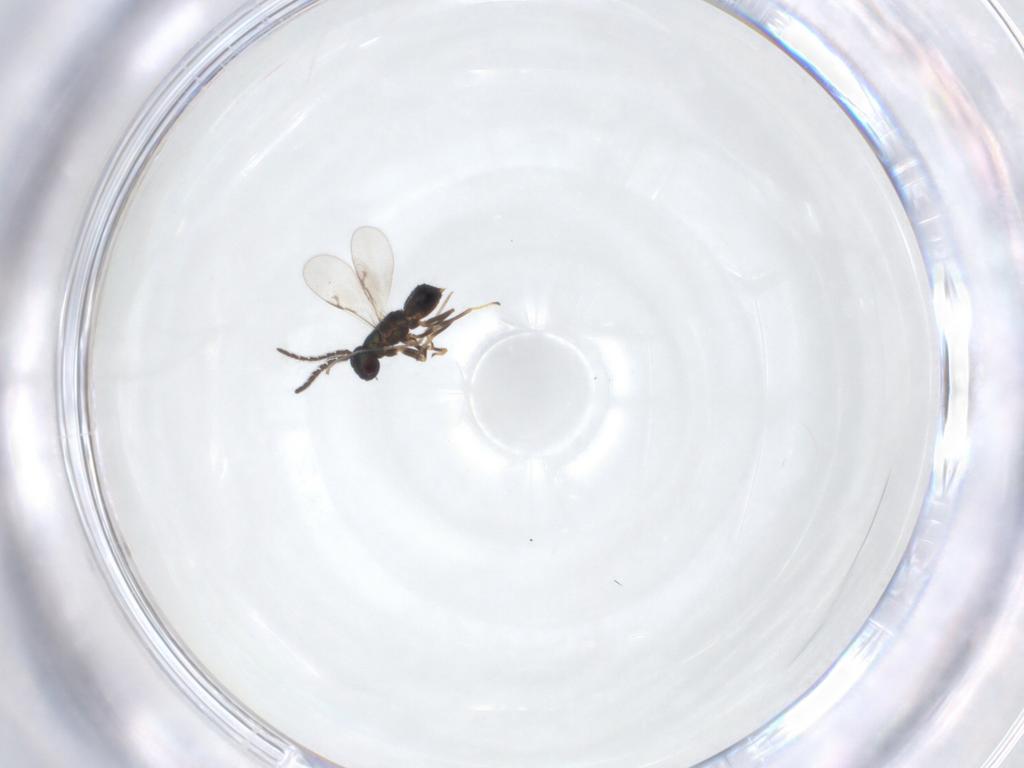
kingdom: Animalia
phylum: Arthropoda
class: Insecta
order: Hymenoptera
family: Encyrtidae
